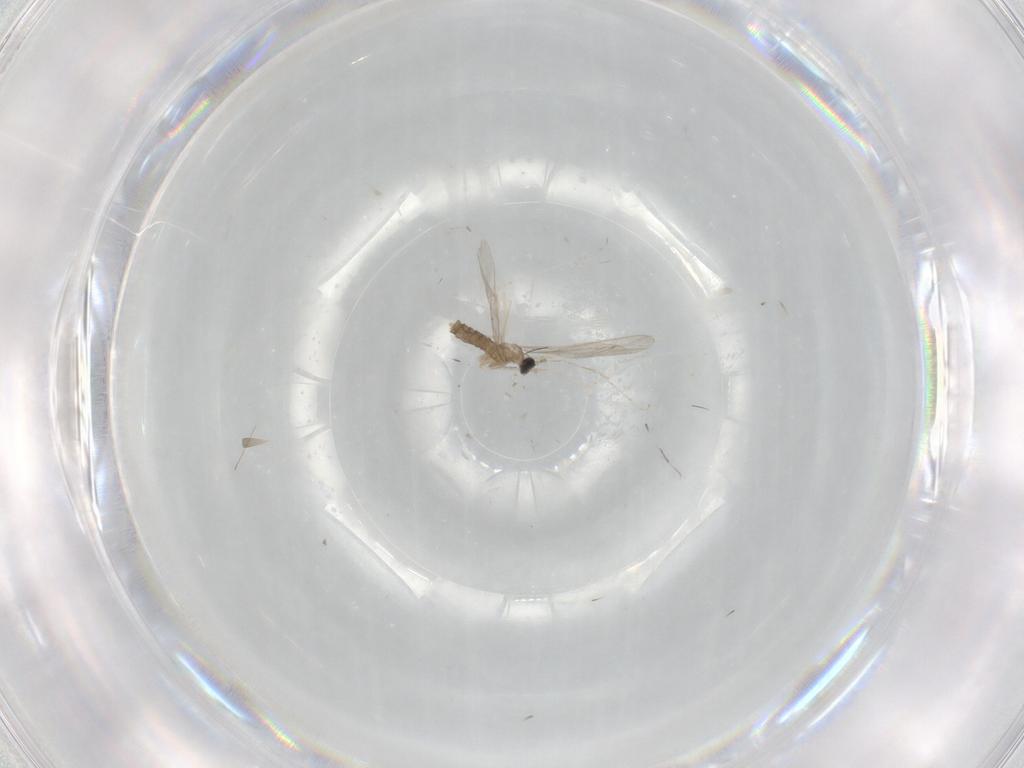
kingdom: Animalia
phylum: Arthropoda
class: Insecta
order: Diptera
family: Cecidomyiidae
